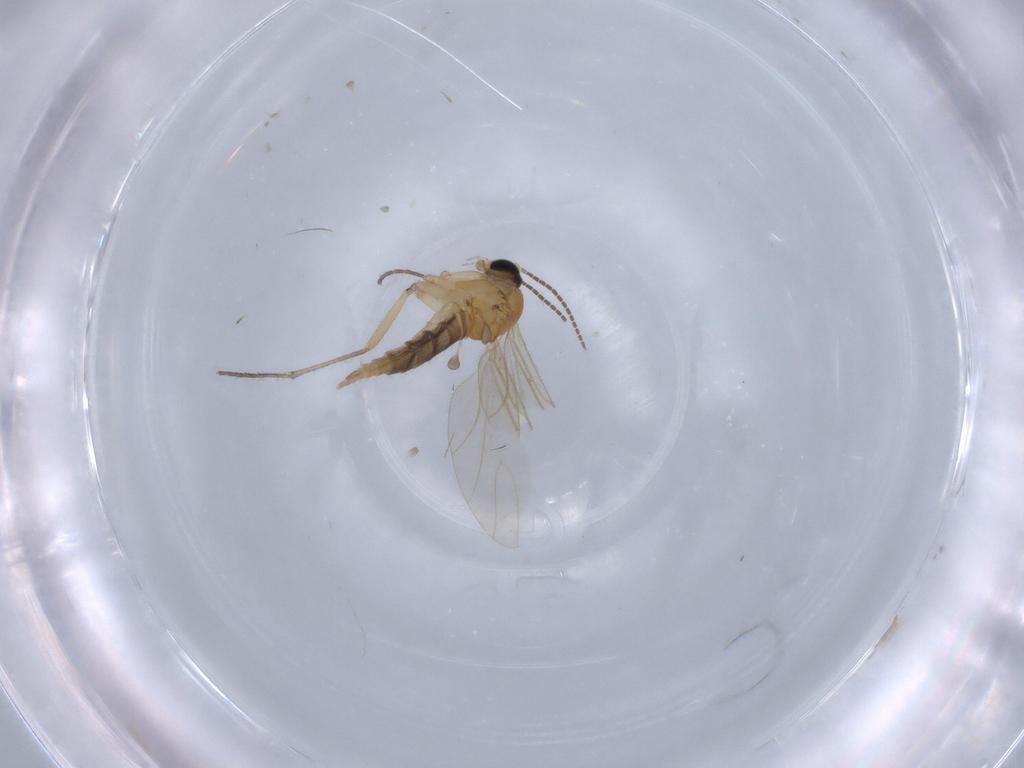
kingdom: Animalia
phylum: Arthropoda
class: Insecta
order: Diptera
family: Sciaridae
